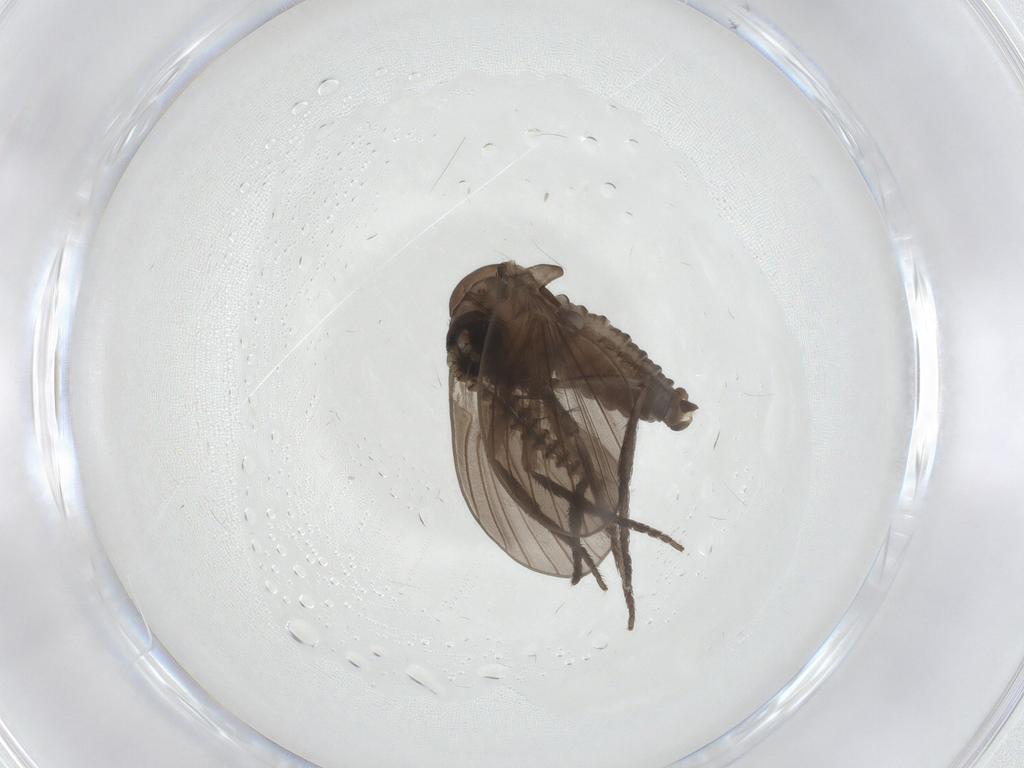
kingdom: Animalia
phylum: Arthropoda
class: Insecta
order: Diptera
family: Psychodidae
